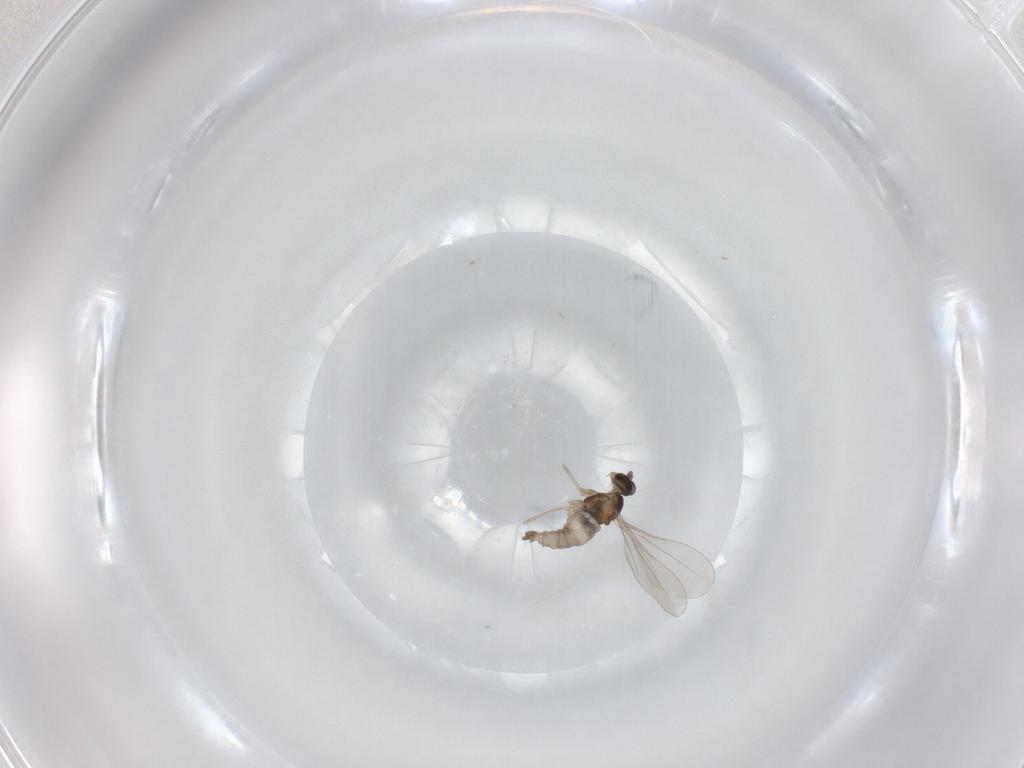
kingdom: Animalia
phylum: Arthropoda
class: Insecta
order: Diptera
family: Cecidomyiidae
